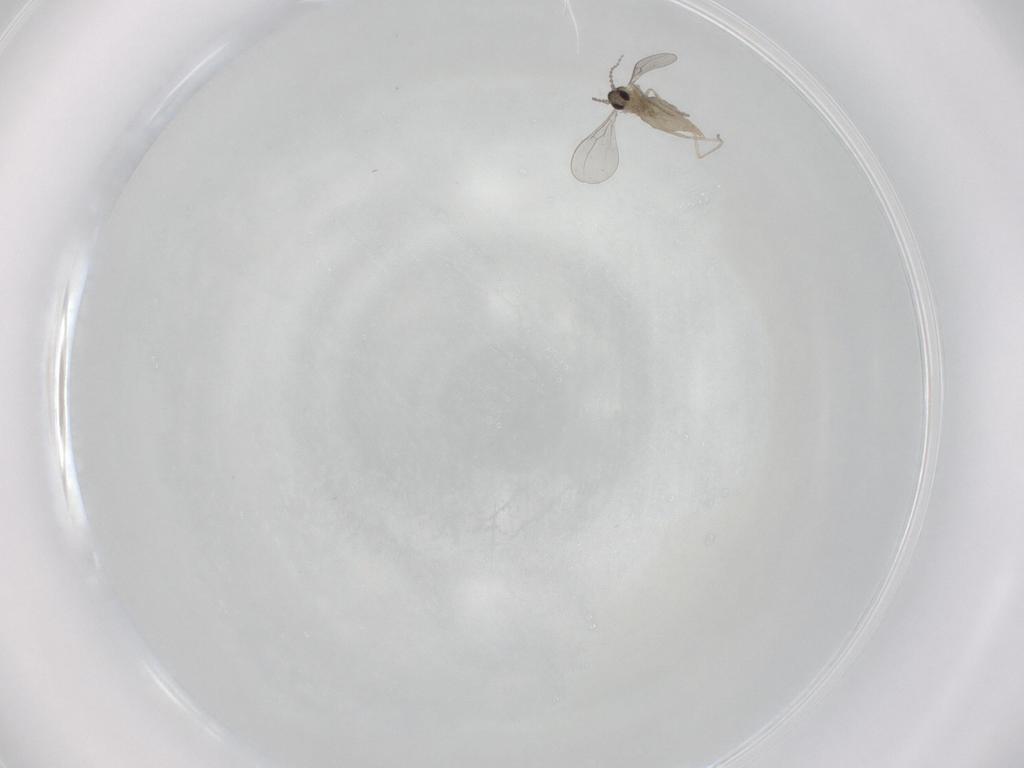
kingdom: Animalia
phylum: Arthropoda
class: Insecta
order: Diptera
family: Cecidomyiidae
